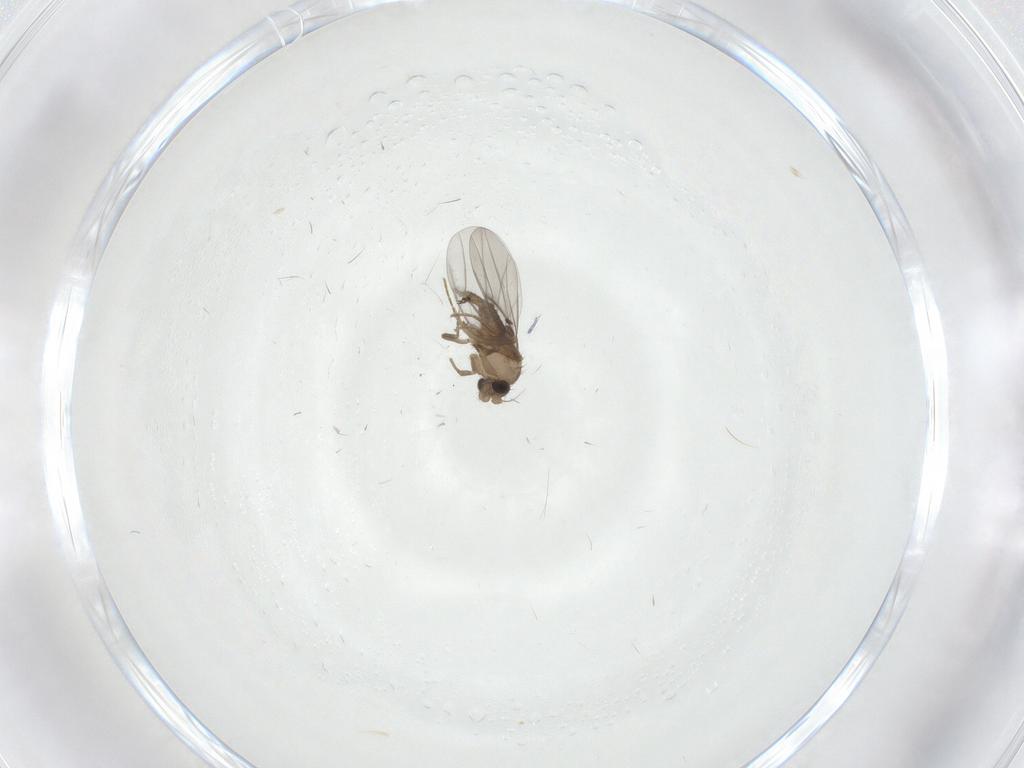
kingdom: Animalia
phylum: Arthropoda
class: Insecta
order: Diptera
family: Cecidomyiidae
